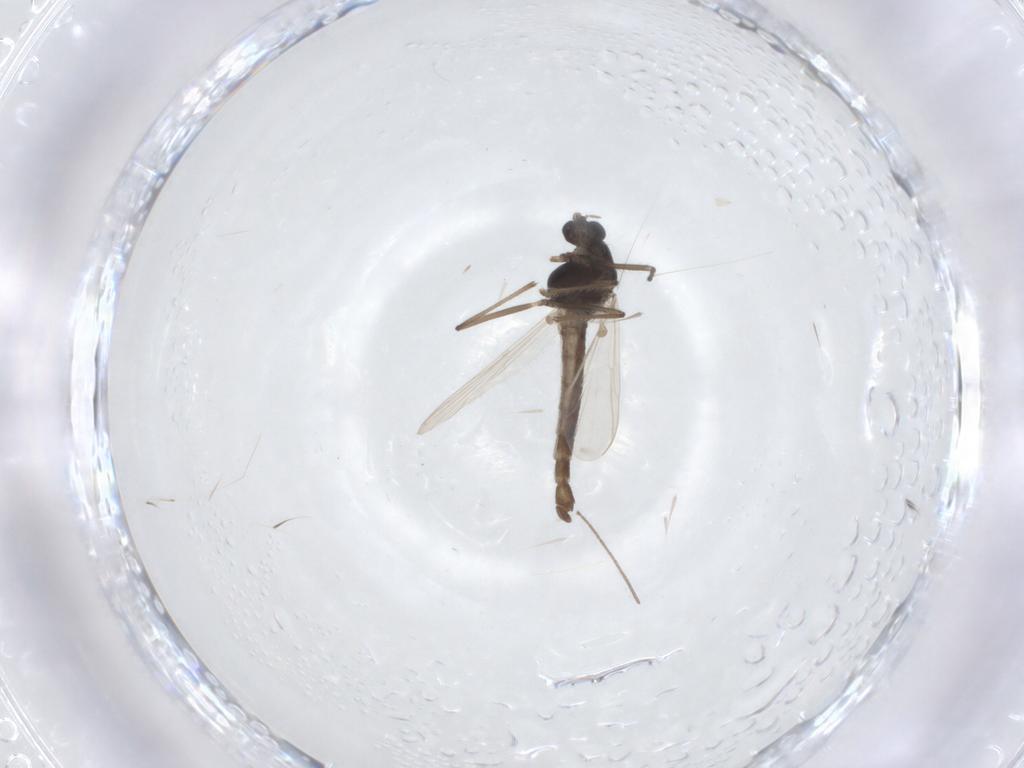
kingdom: Animalia
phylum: Arthropoda
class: Insecta
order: Diptera
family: Chironomidae
